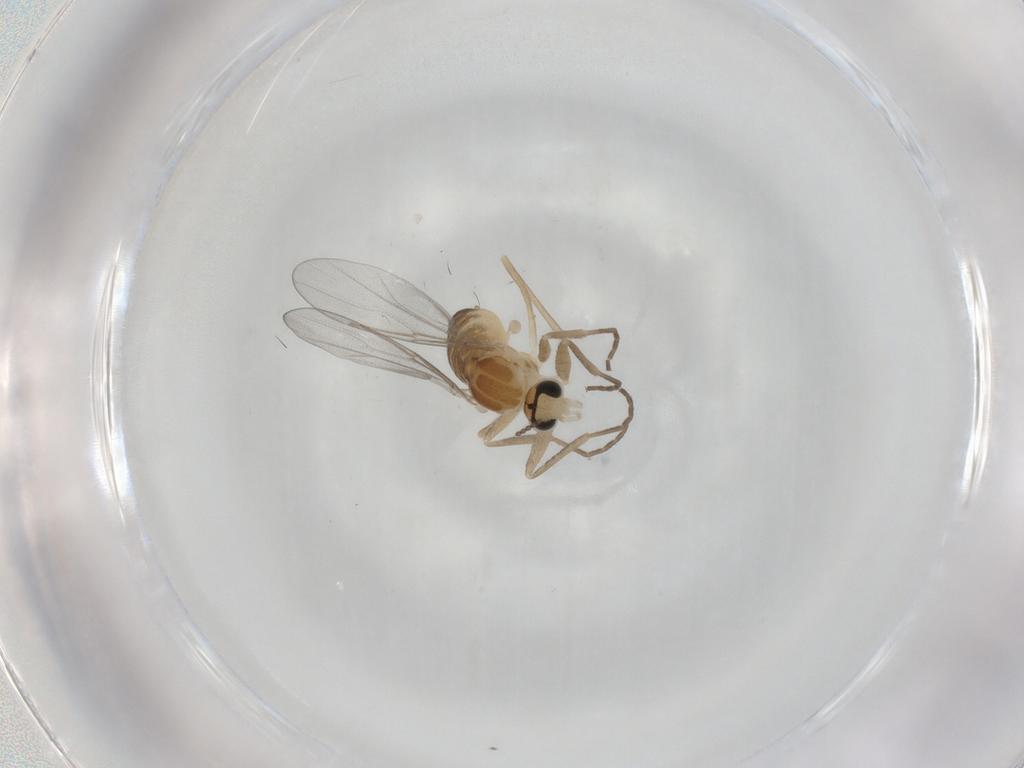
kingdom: Animalia
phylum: Arthropoda
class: Insecta
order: Diptera
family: Cecidomyiidae
